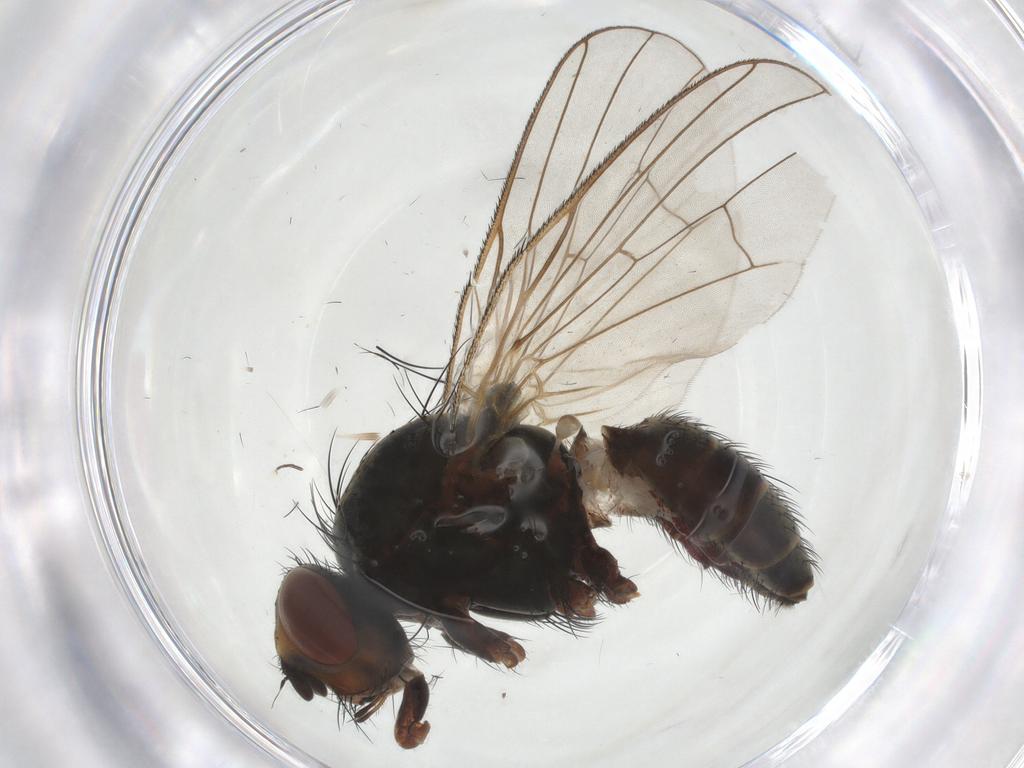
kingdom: Animalia
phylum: Arthropoda
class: Insecta
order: Diptera
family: Anthomyiidae
